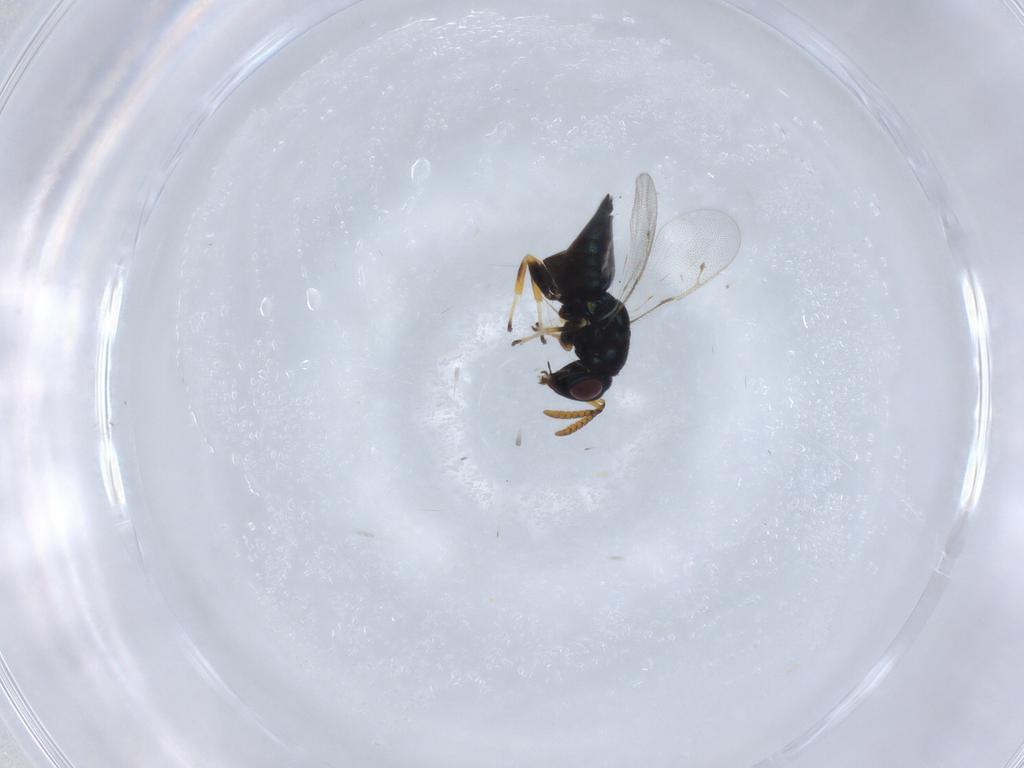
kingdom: Animalia
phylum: Arthropoda
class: Insecta
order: Hymenoptera
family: Pteromalidae
